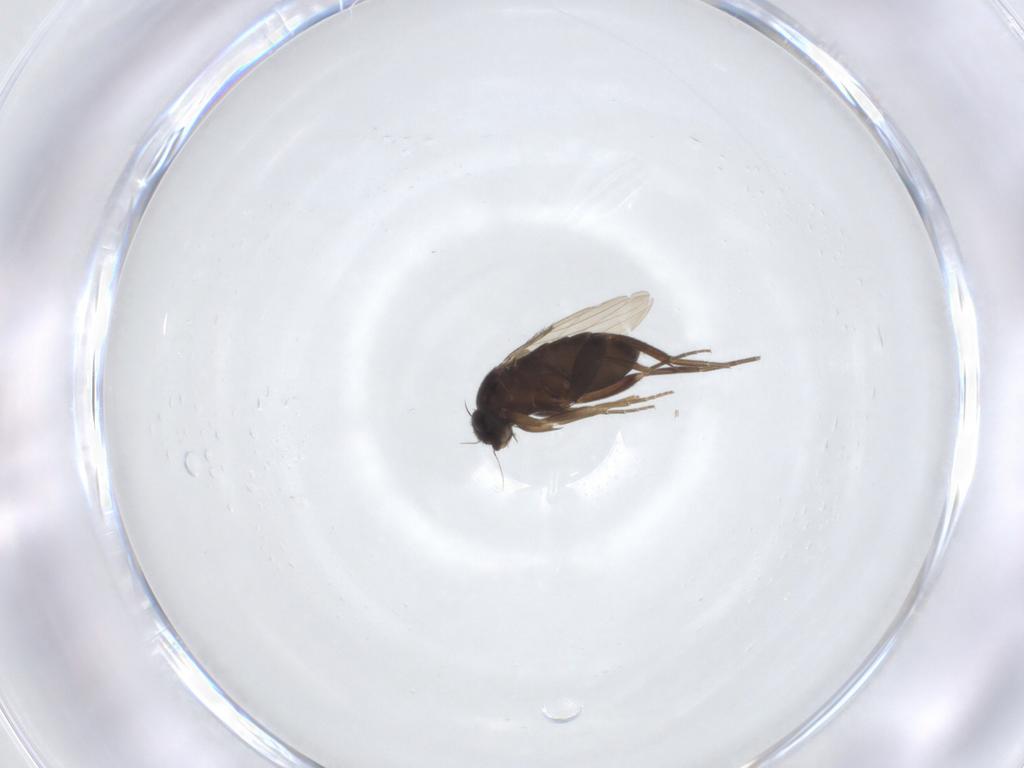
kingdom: Animalia
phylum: Arthropoda
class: Insecta
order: Diptera
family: Phoridae
